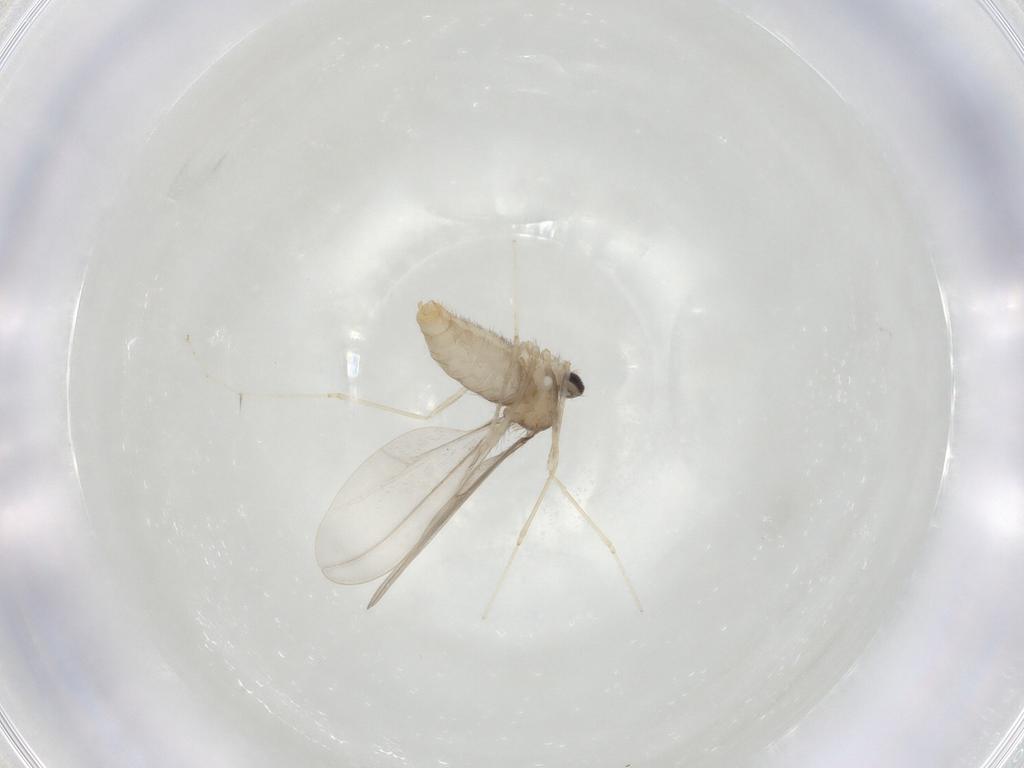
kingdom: Animalia
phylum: Arthropoda
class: Insecta
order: Diptera
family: Cecidomyiidae
